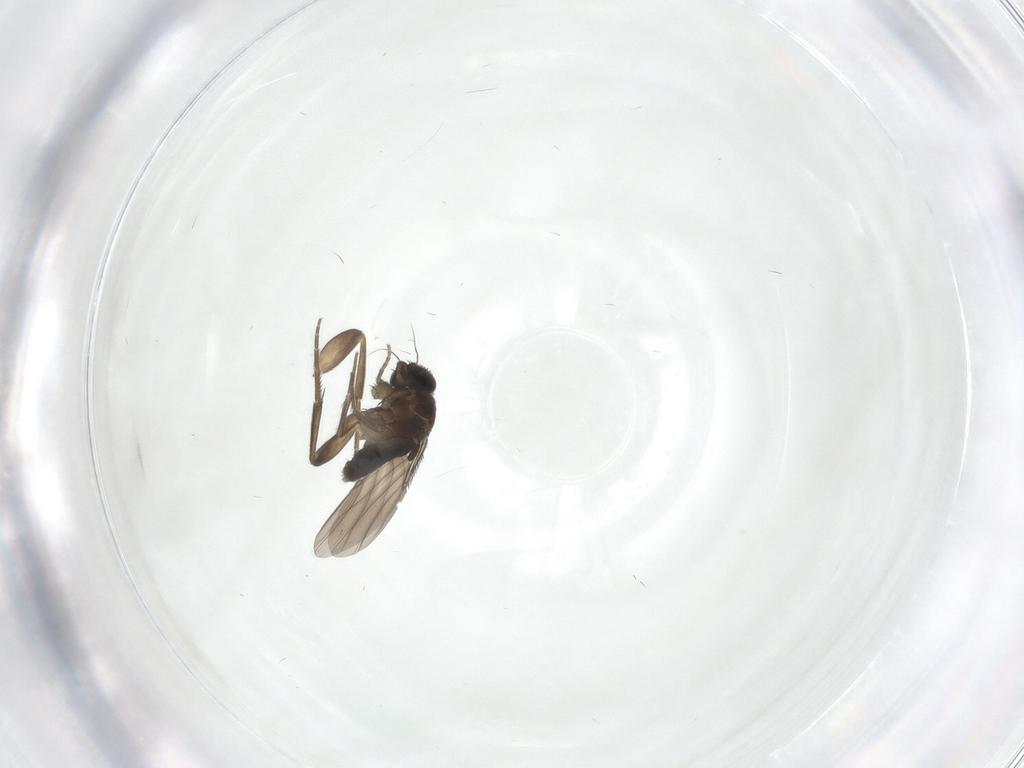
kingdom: Animalia
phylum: Arthropoda
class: Insecta
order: Diptera
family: Phoridae
